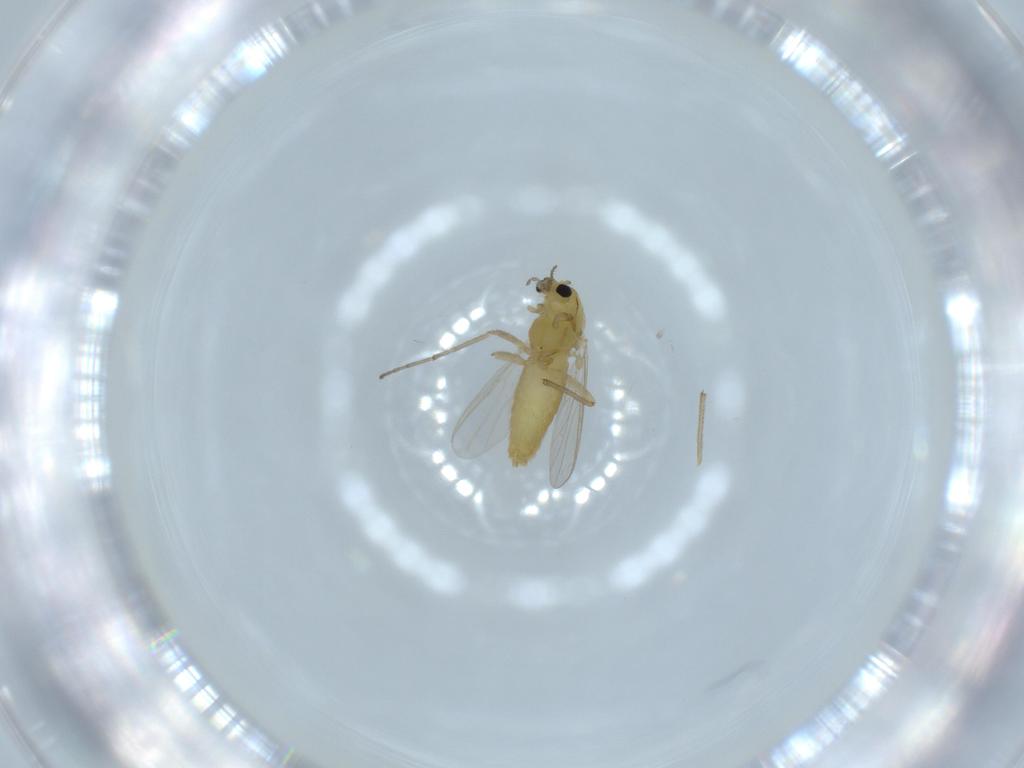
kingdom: Animalia
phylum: Arthropoda
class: Insecta
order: Diptera
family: Chironomidae
